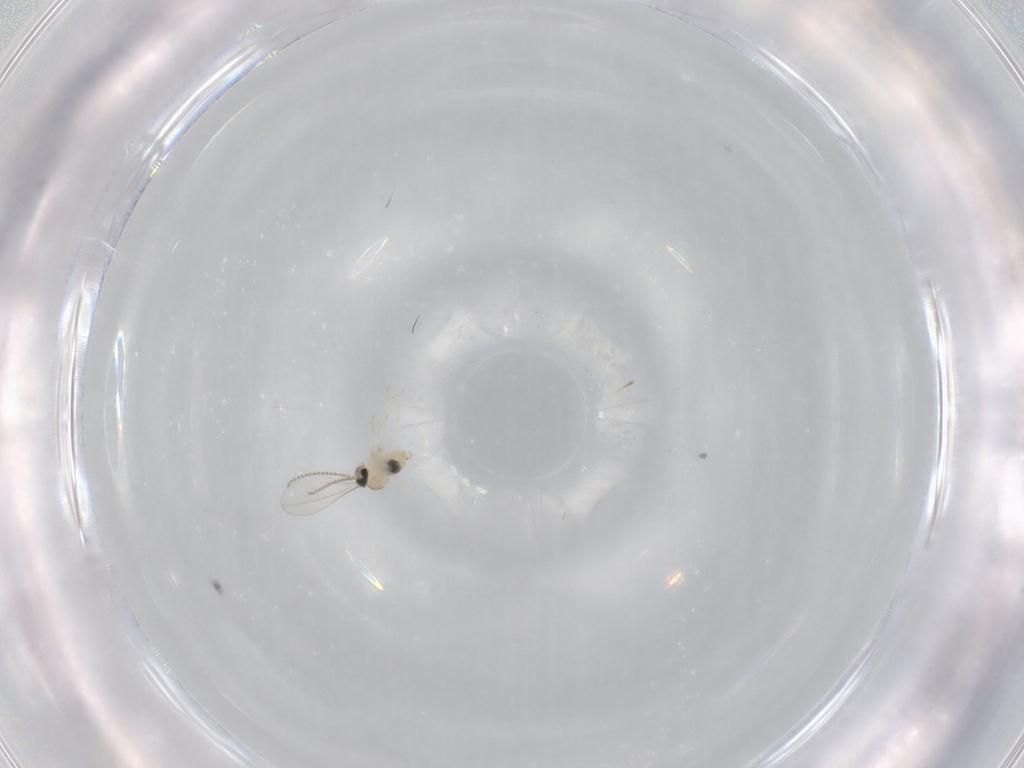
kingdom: Animalia
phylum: Arthropoda
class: Insecta
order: Diptera
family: Cecidomyiidae
